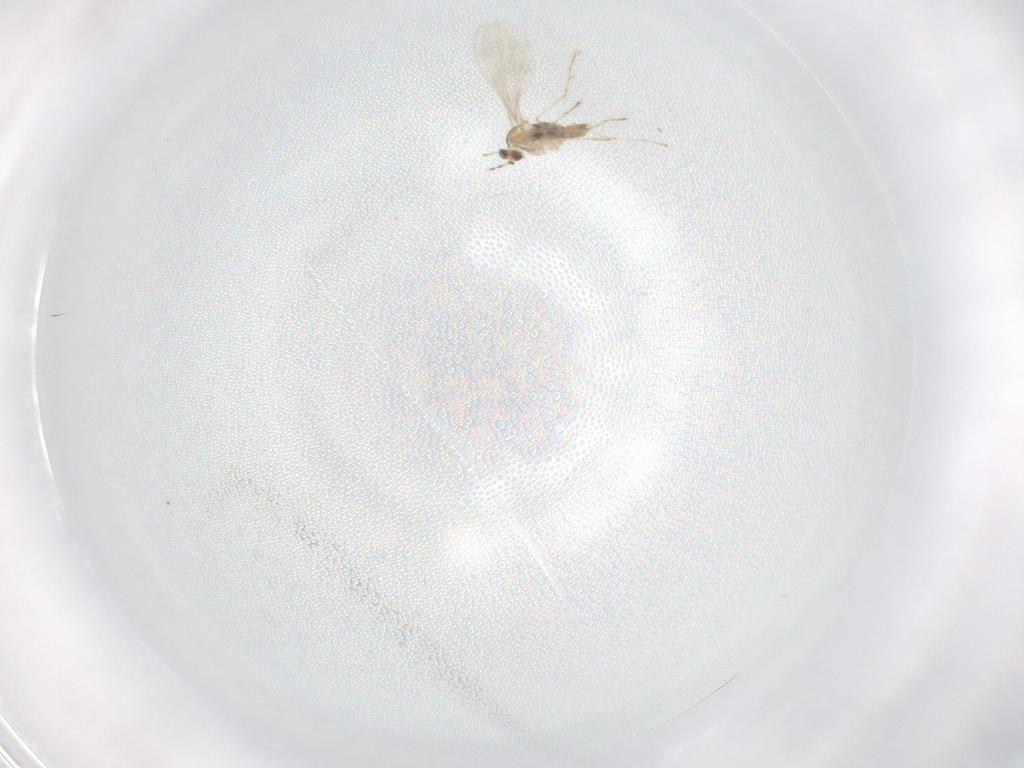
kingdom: Animalia
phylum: Arthropoda
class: Insecta
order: Diptera
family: Cecidomyiidae
